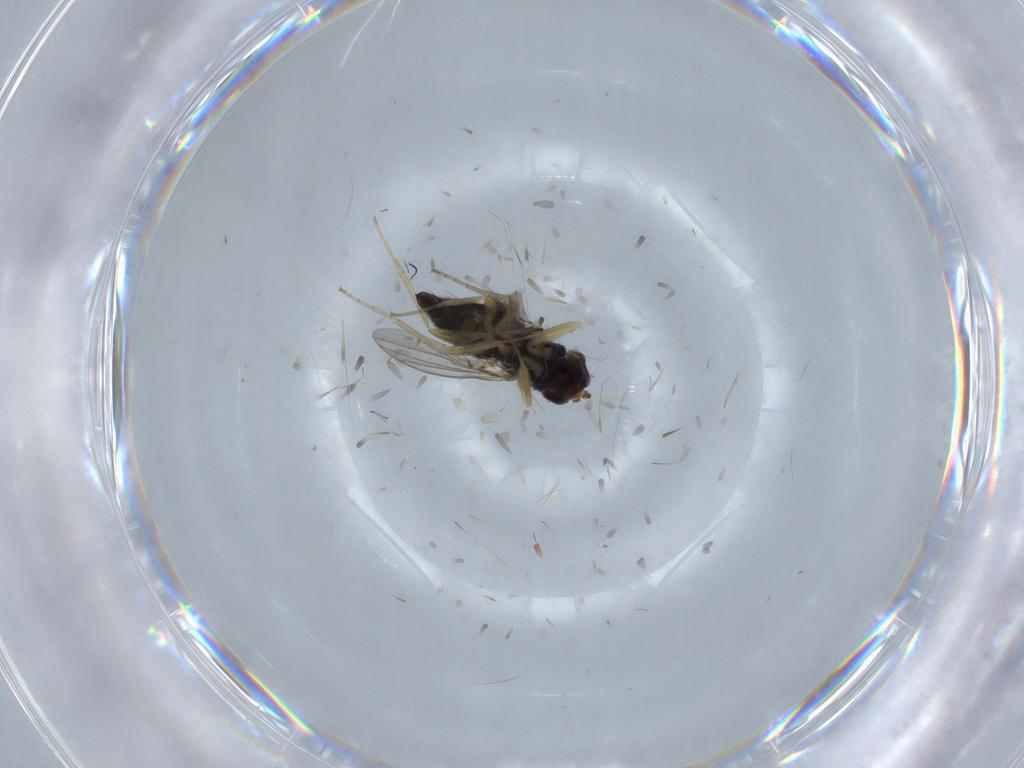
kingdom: Animalia
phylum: Arthropoda
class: Insecta
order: Diptera
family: Dolichopodidae
